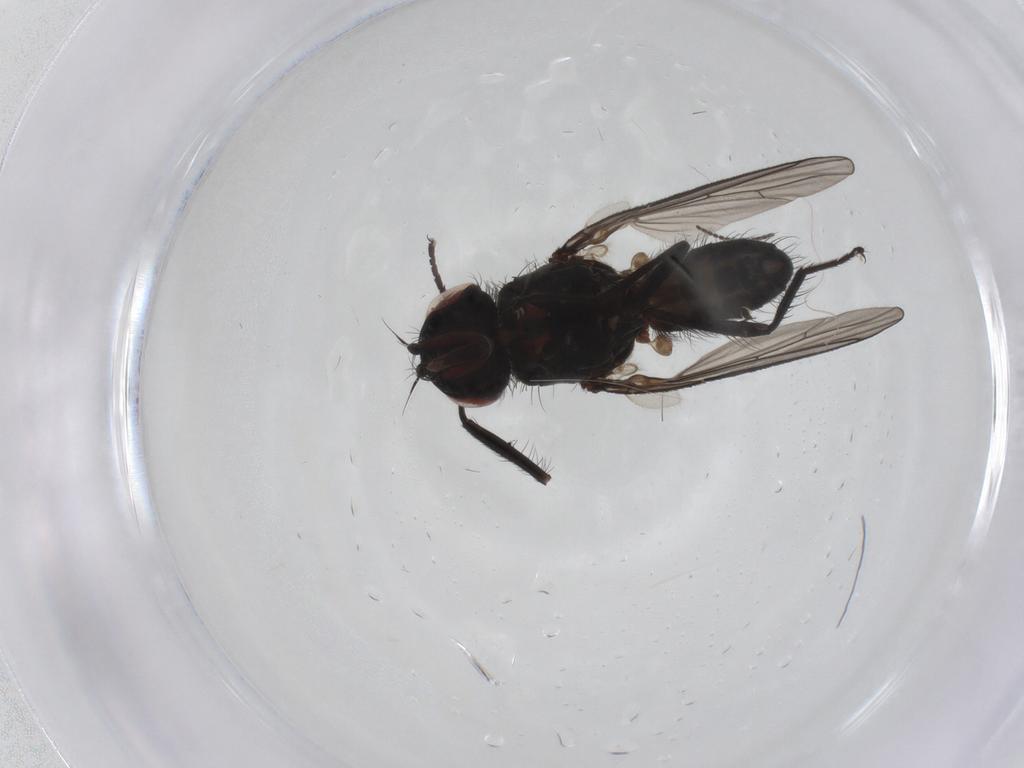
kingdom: Animalia
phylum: Arthropoda
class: Insecta
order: Diptera
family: Anthomyiidae
